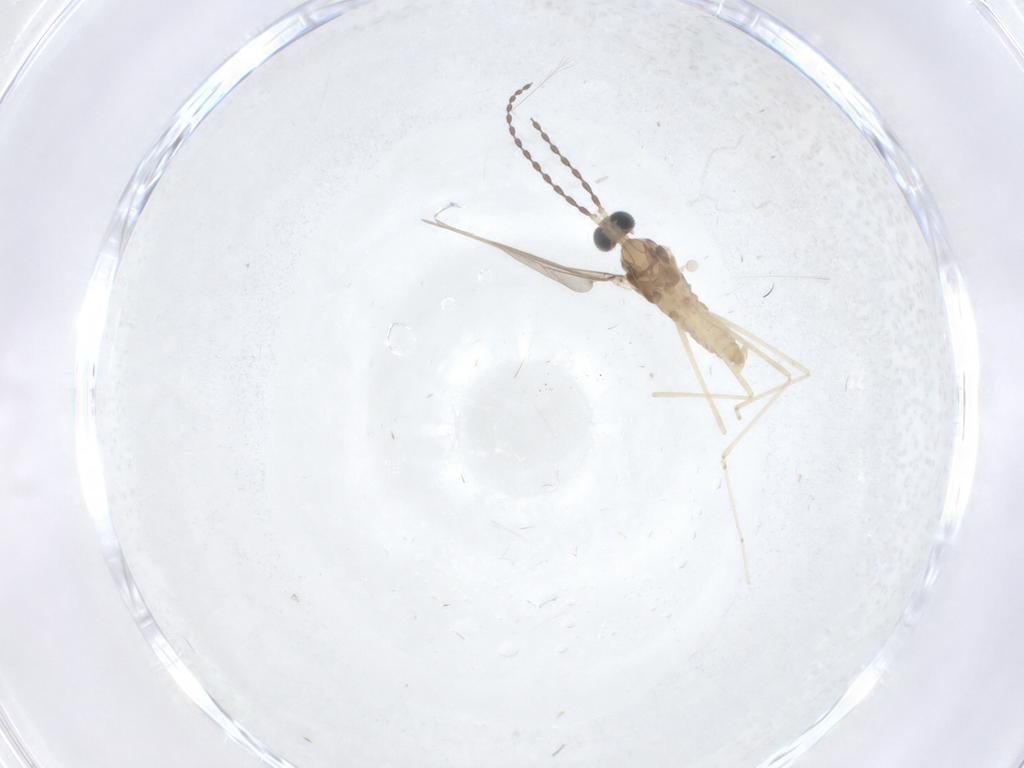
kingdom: Animalia
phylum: Arthropoda
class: Insecta
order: Diptera
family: Cecidomyiidae
